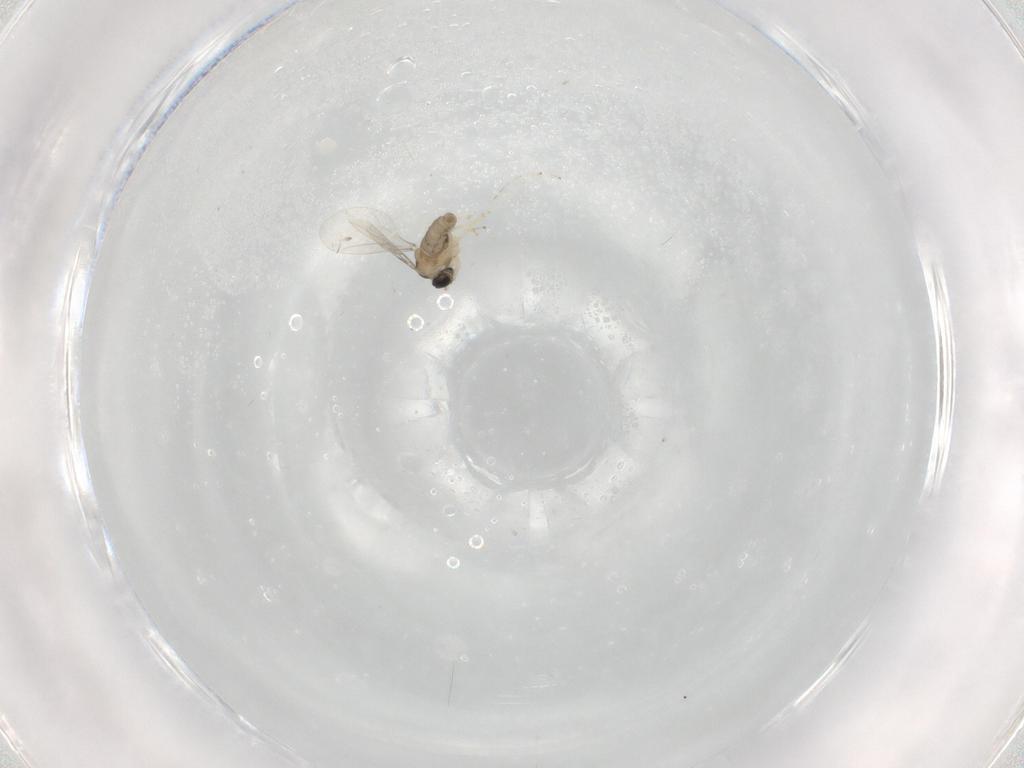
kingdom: Animalia
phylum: Arthropoda
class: Insecta
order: Diptera
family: Cecidomyiidae
